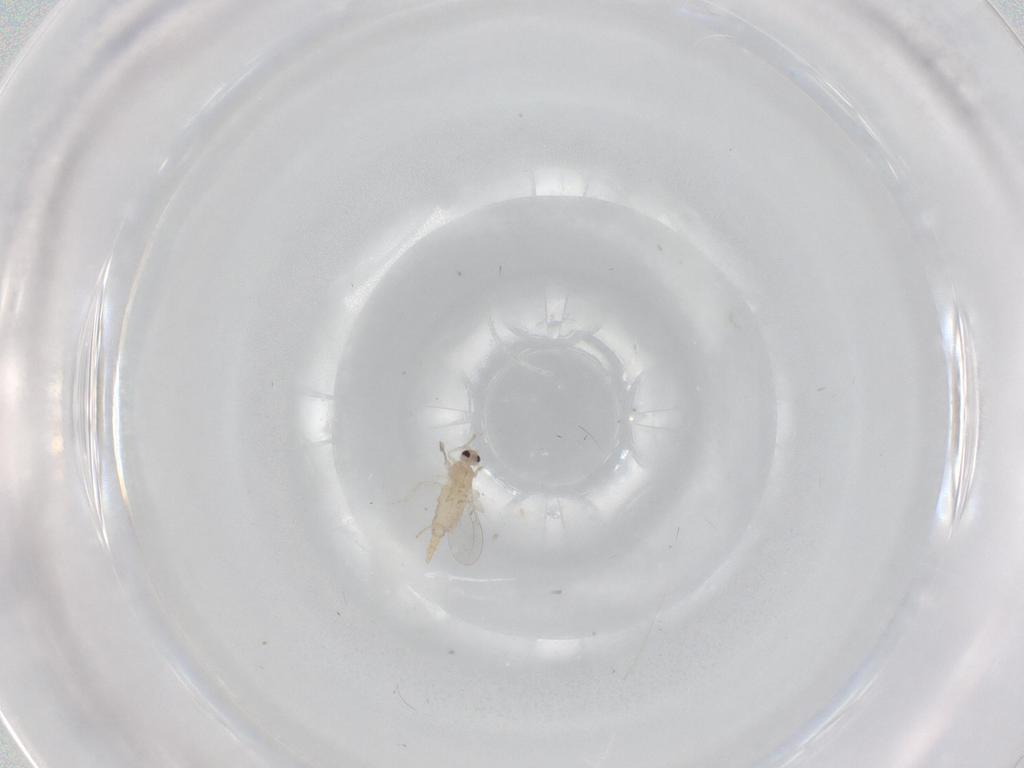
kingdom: Animalia
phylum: Arthropoda
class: Insecta
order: Diptera
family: Cecidomyiidae
